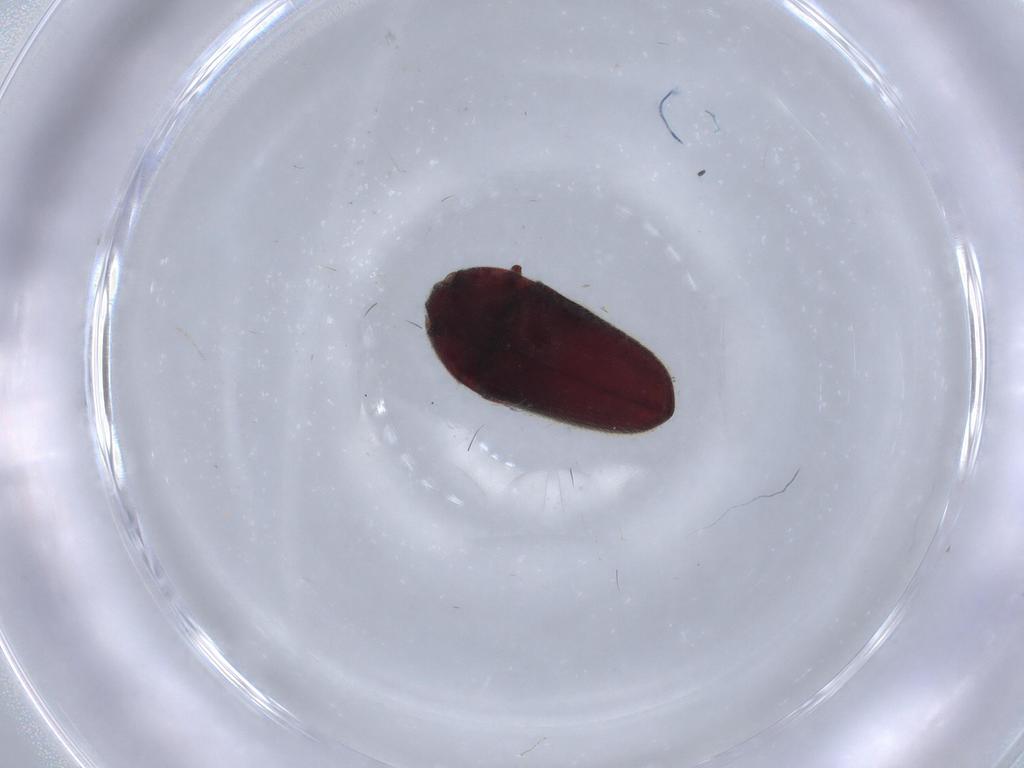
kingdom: Animalia
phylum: Arthropoda
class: Insecta
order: Coleoptera
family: Throscidae
